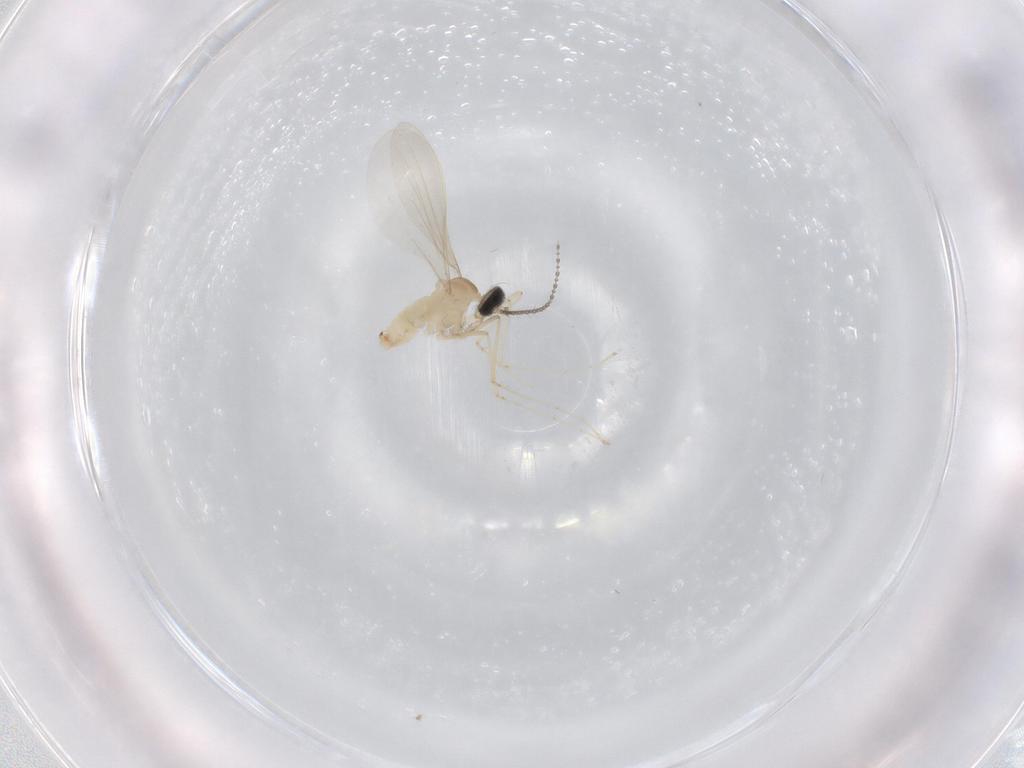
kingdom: Animalia
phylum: Arthropoda
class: Insecta
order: Diptera
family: Cecidomyiidae
